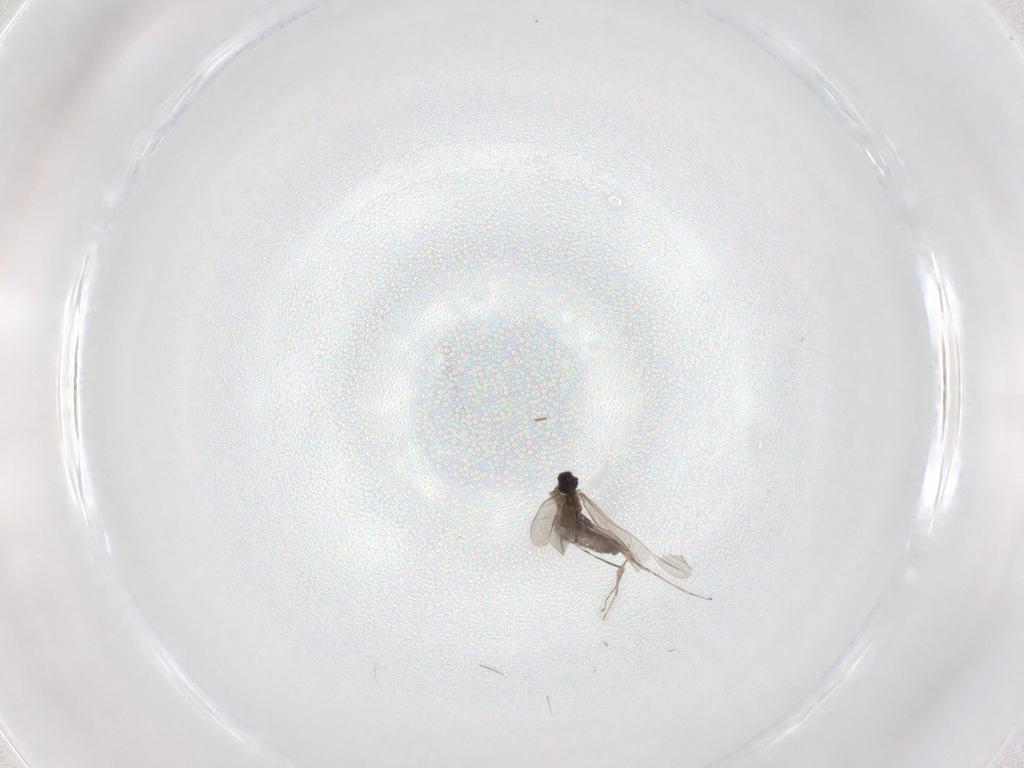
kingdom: Animalia
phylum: Arthropoda
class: Insecta
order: Diptera
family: Cecidomyiidae
